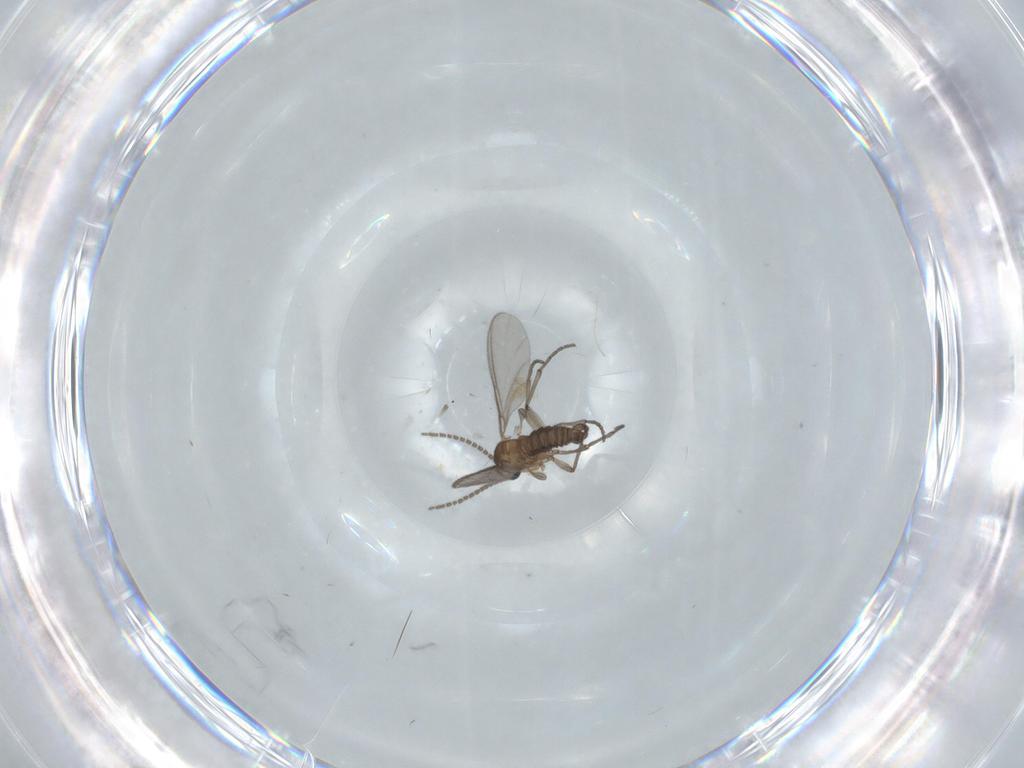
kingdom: Animalia
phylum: Arthropoda
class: Insecta
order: Diptera
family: Sciaridae
